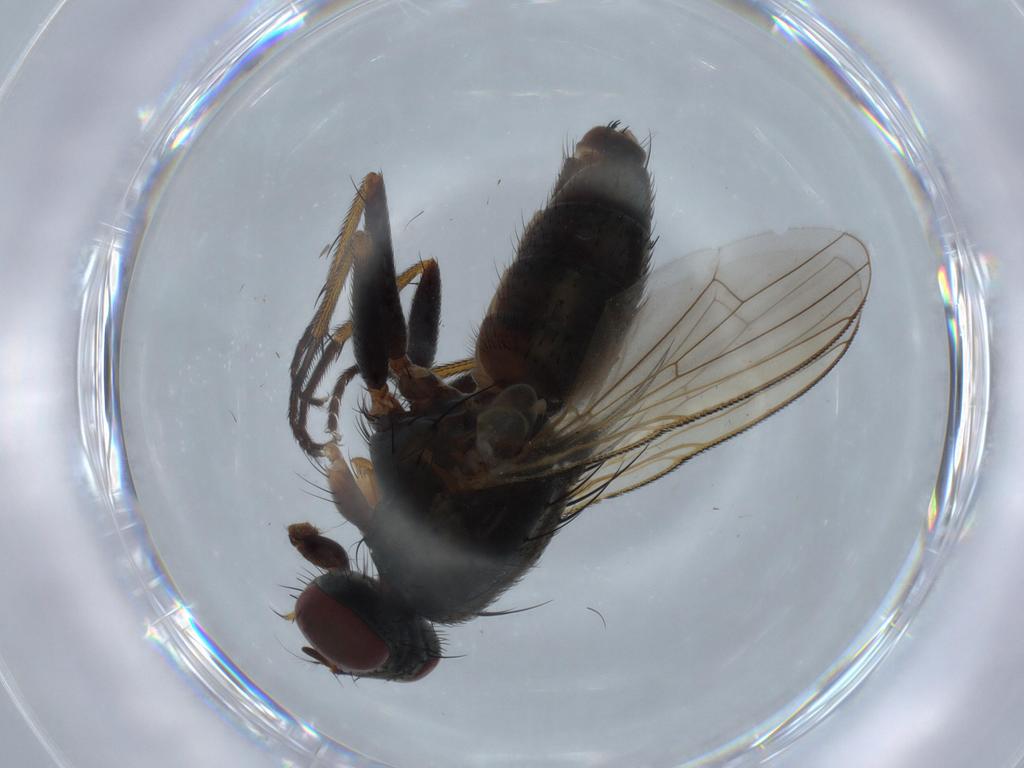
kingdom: Animalia
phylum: Arthropoda
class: Insecta
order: Diptera
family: Muscidae
